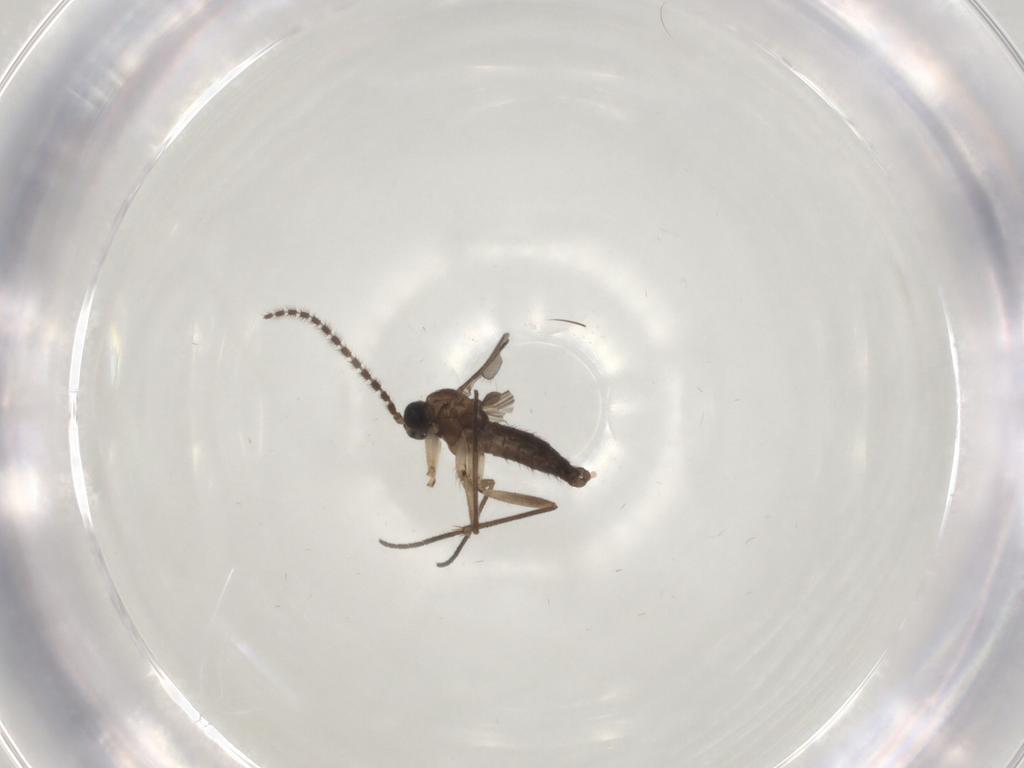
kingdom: Animalia
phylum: Arthropoda
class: Insecta
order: Diptera
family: Sciaridae
